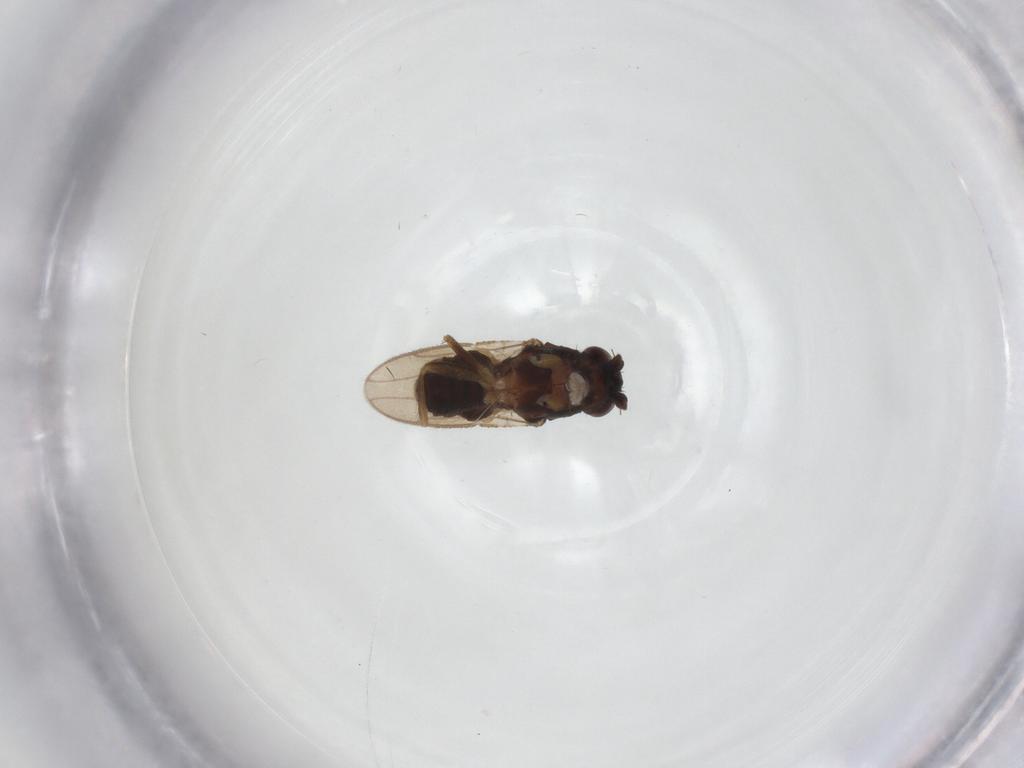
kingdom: Animalia
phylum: Arthropoda
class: Insecta
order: Diptera
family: Sphaeroceridae
